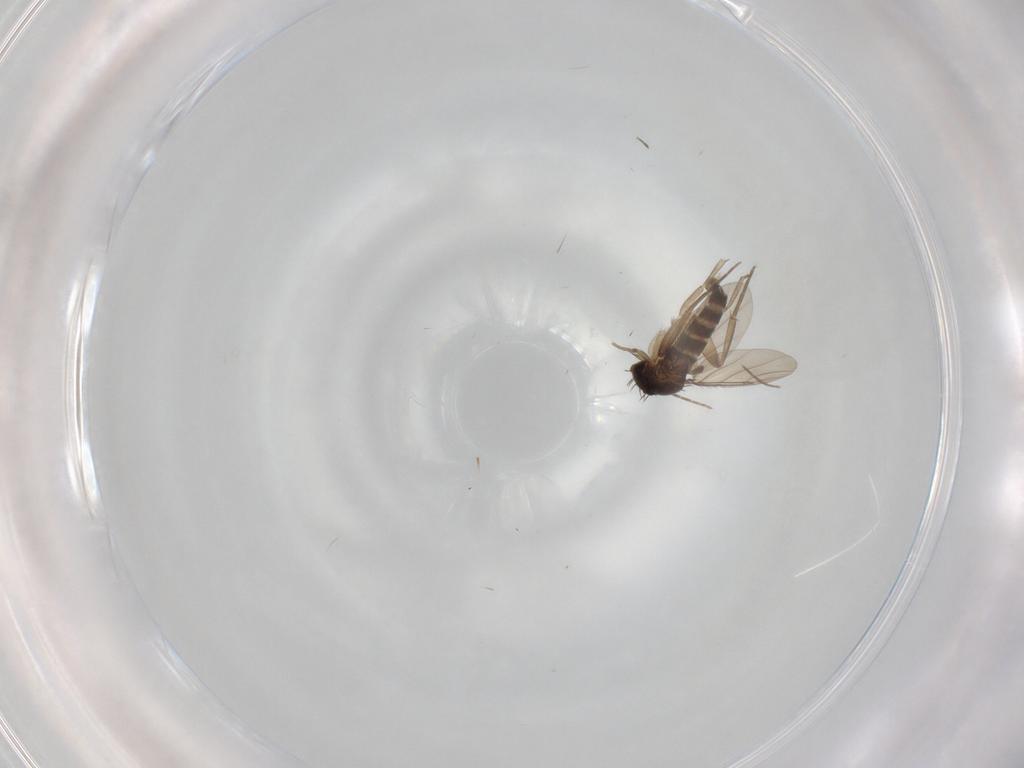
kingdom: Animalia
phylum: Arthropoda
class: Insecta
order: Diptera
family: Phoridae
